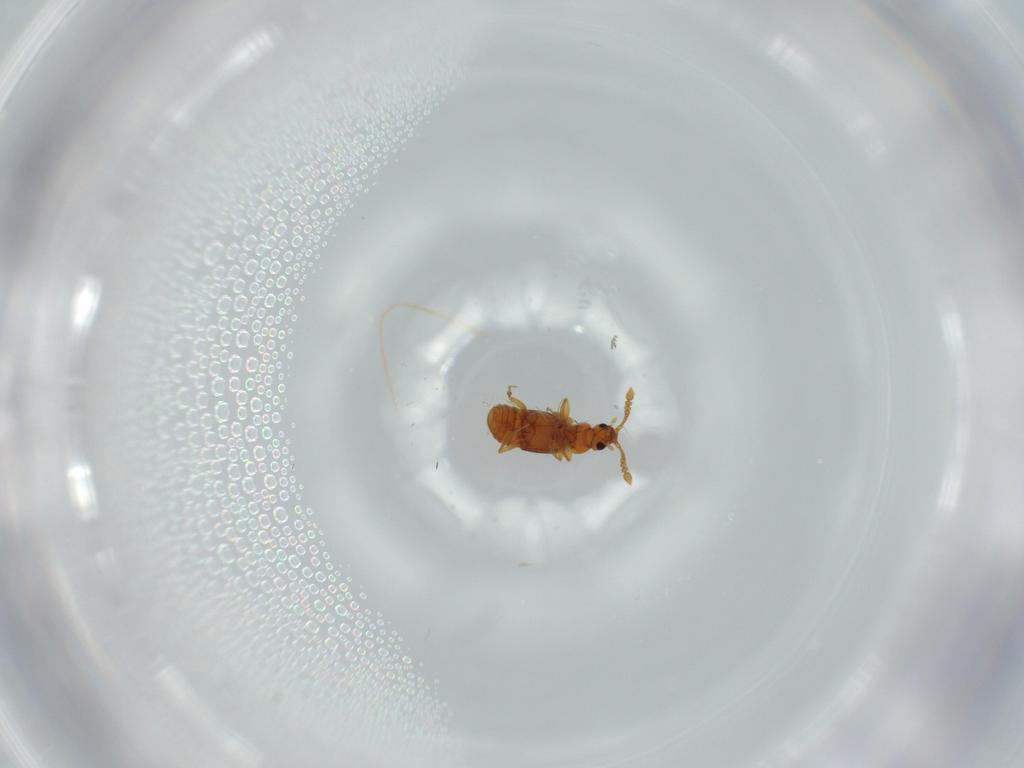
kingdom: Animalia
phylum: Arthropoda
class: Insecta
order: Coleoptera
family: Staphylinidae
